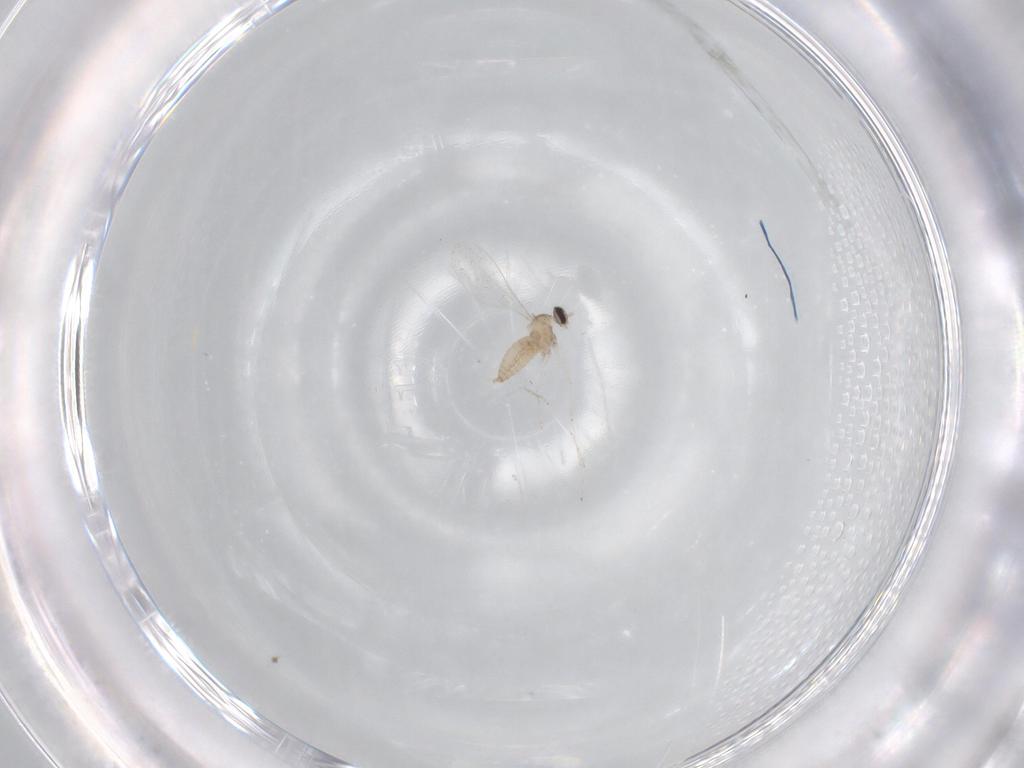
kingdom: Animalia
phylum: Arthropoda
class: Insecta
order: Diptera
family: Cecidomyiidae
